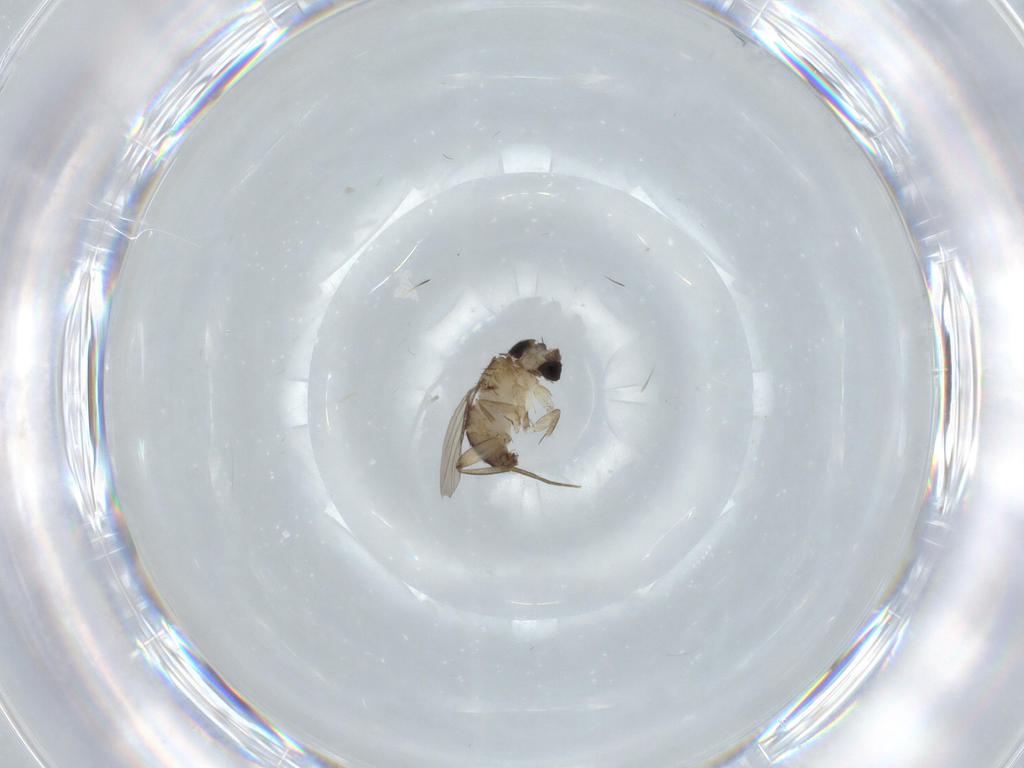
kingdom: Animalia
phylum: Arthropoda
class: Insecta
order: Diptera
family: Phoridae
